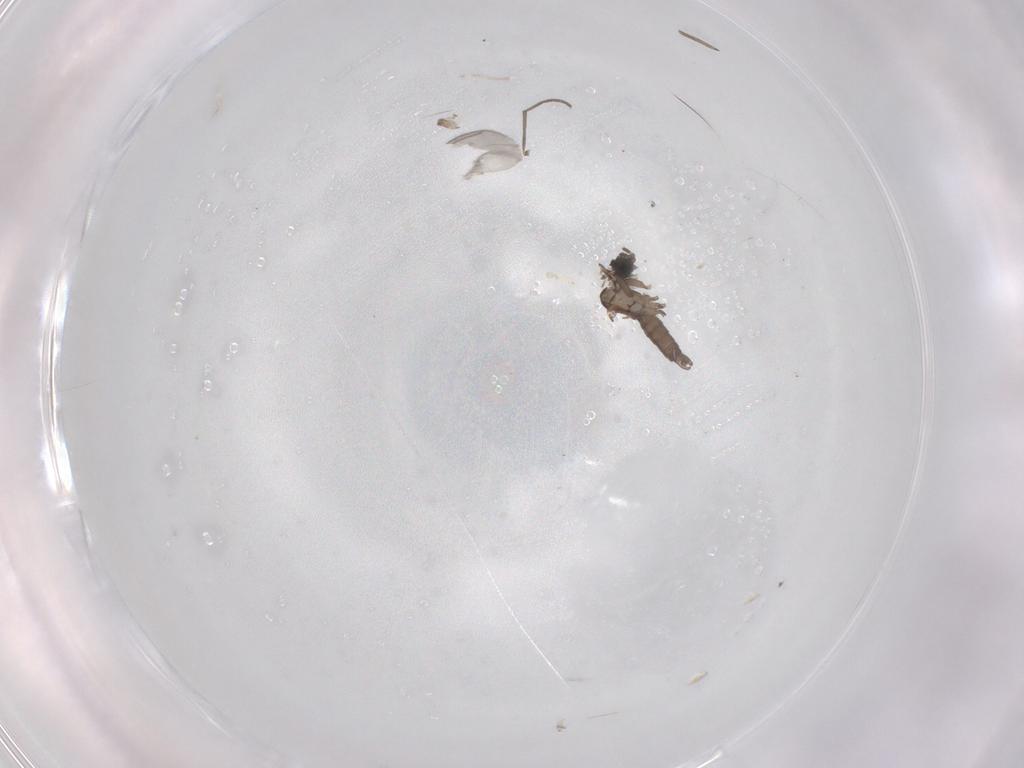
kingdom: Animalia
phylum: Arthropoda
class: Insecta
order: Diptera
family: Sciaridae
